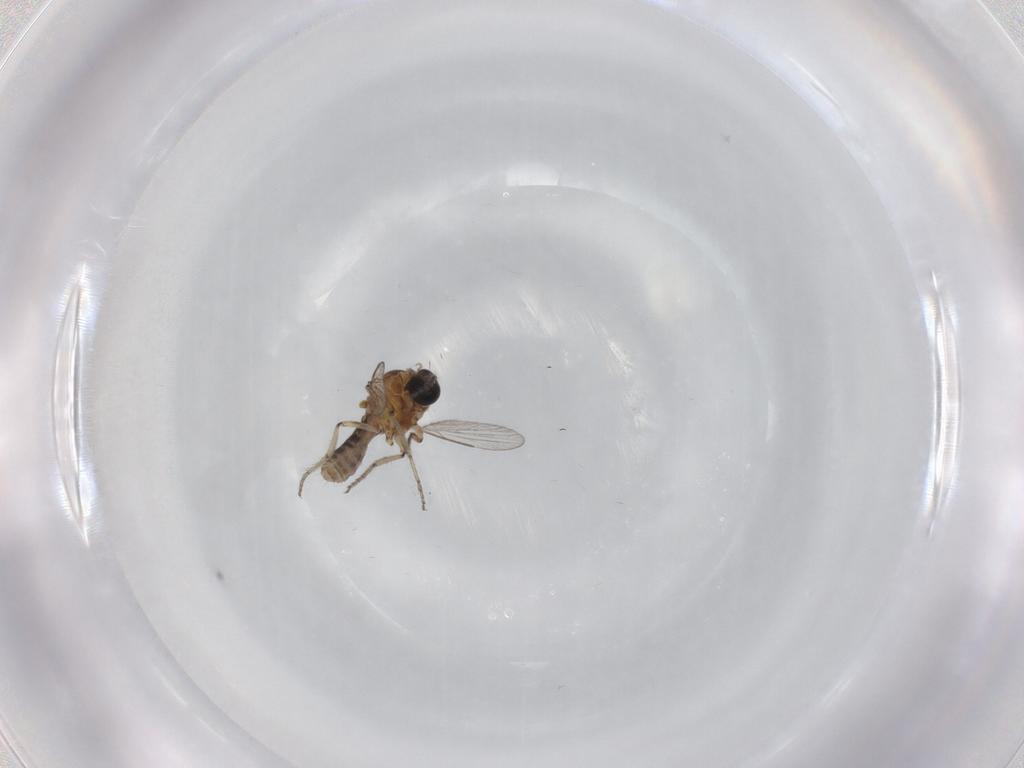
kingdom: Animalia
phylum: Arthropoda
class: Insecta
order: Diptera
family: Ceratopogonidae
